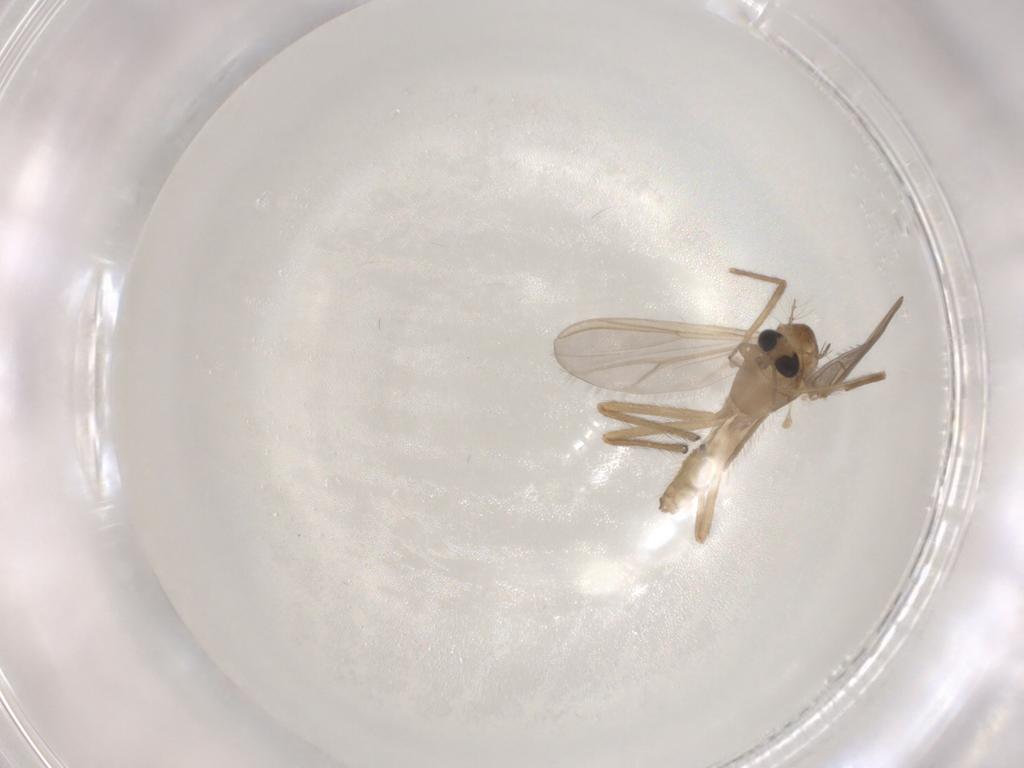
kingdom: Animalia
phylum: Arthropoda
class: Insecta
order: Diptera
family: Chironomidae
